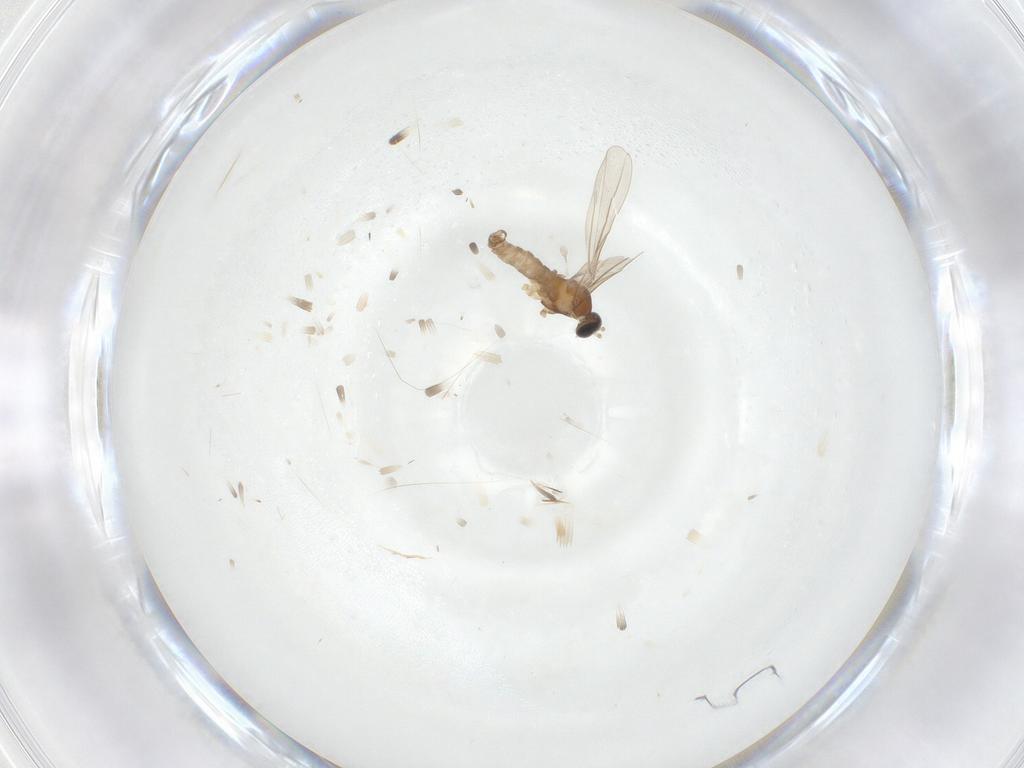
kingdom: Animalia
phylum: Arthropoda
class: Insecta
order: Diptera
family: Cecidomyiidae
